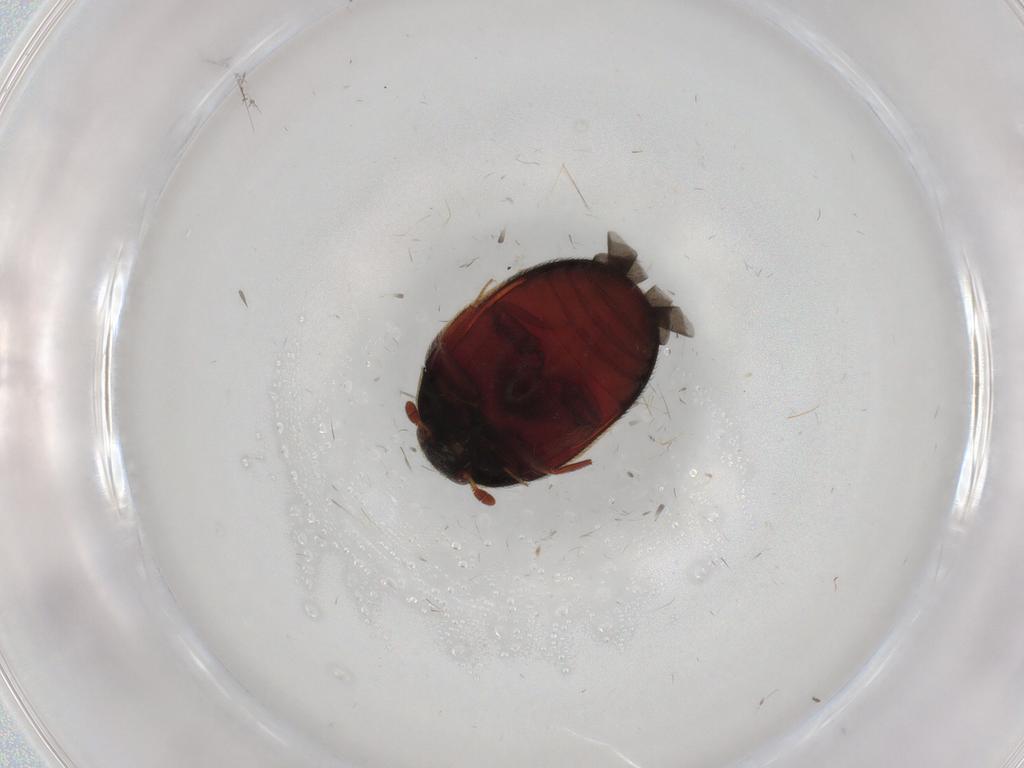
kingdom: Animalia
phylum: Arthropoda
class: Insecta
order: Coleoptera
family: Dermestidae
